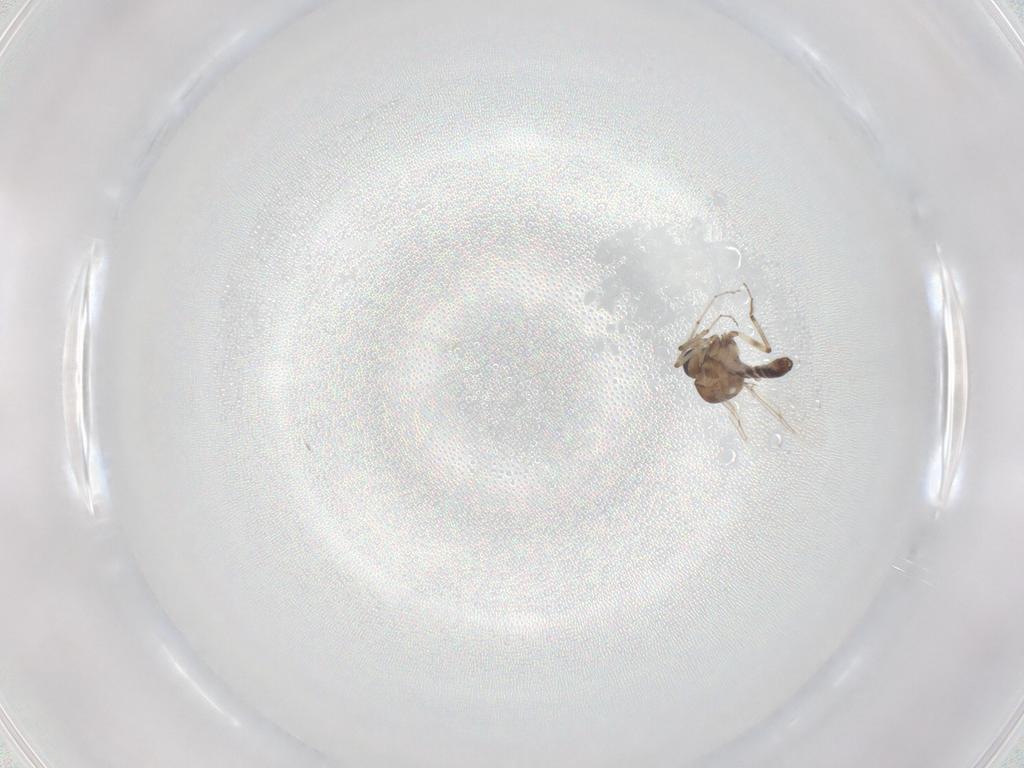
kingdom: Animalia
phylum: Arthropoda
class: Insecta
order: Diptera
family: Ceratopogonidae
